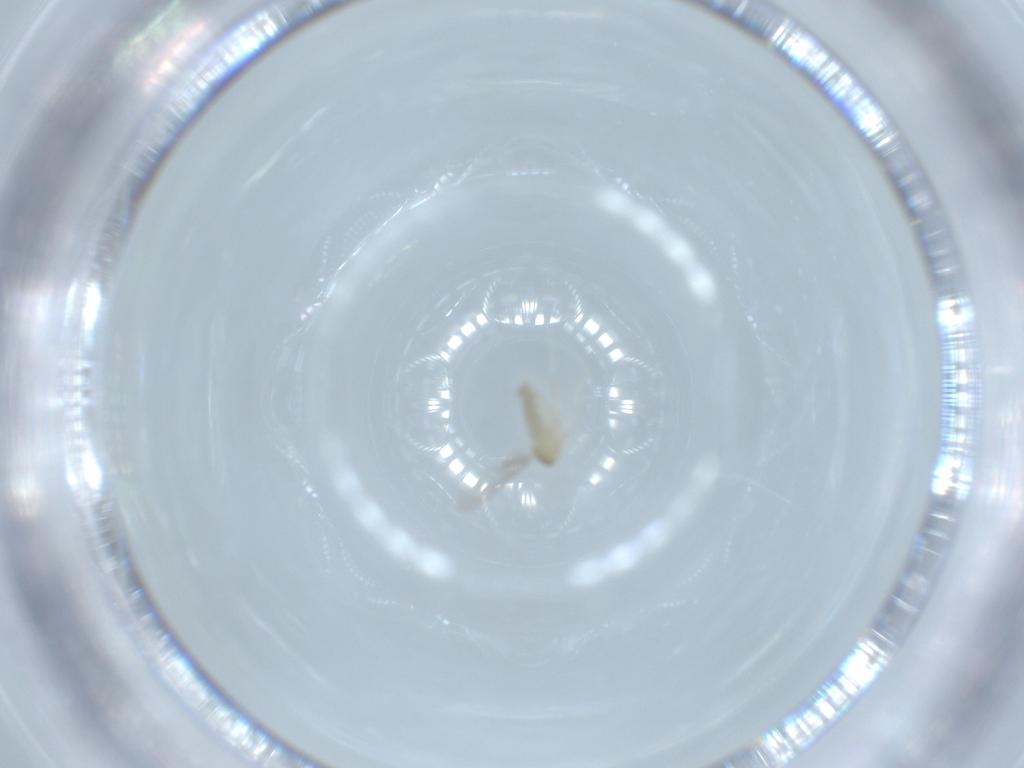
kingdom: Animalia
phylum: Arthropoda
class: Insecta
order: Diptera
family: Cecidomyiidae
